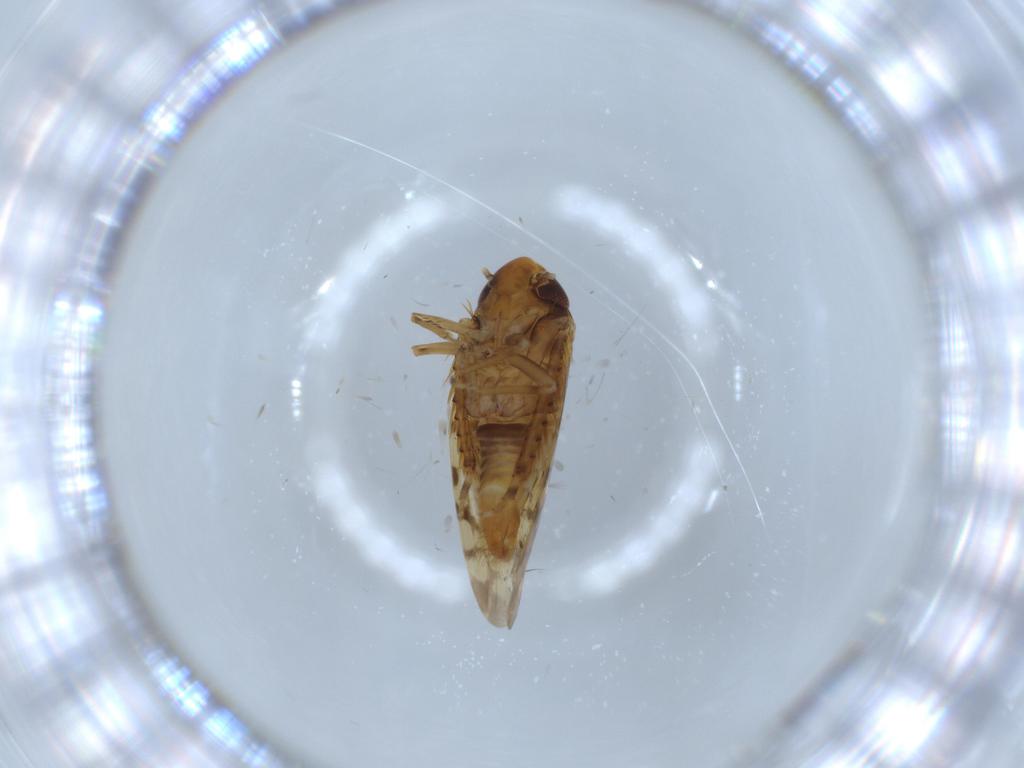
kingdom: Animalia
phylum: Arthropoda
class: Insecta
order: Hemiptera
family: Cicadellidae
